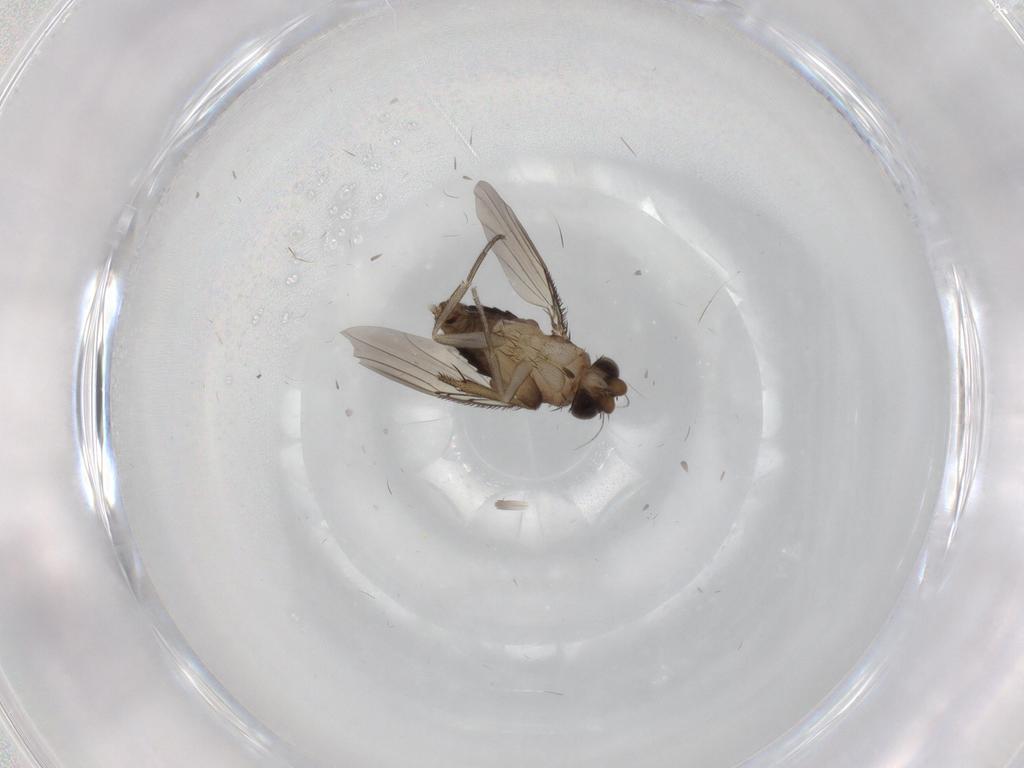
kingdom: Animalia
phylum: Arthropoda
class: Insecta
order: Diptera
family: Phoridae
